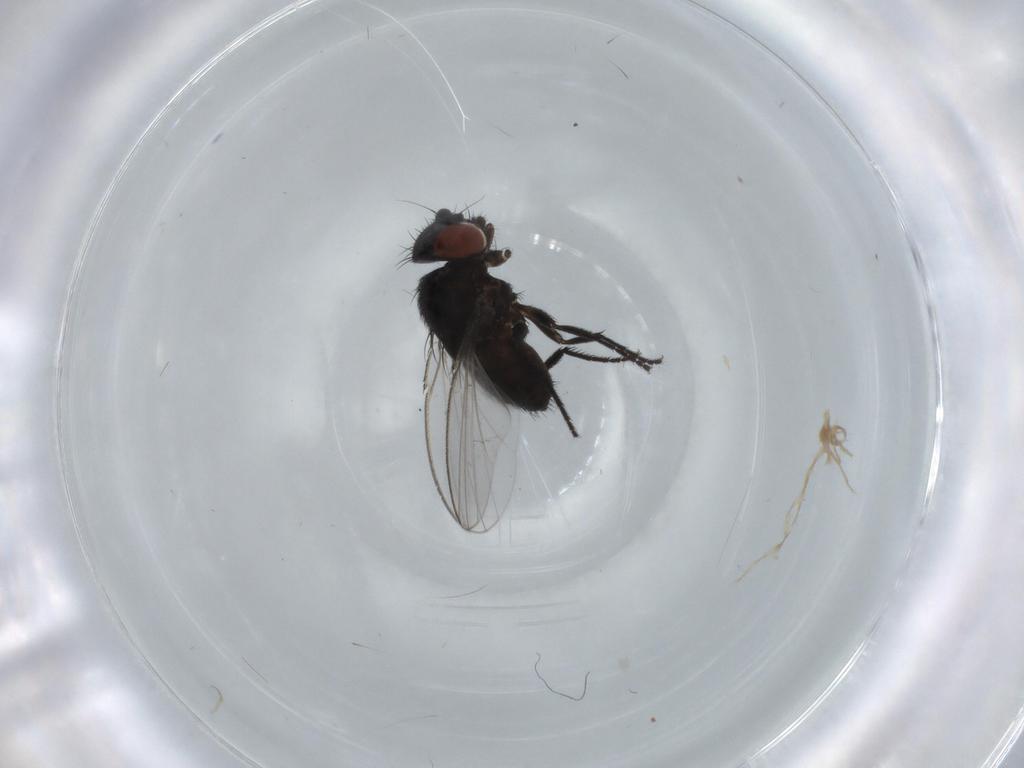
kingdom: Animalia
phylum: Arthropoda
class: Insecta
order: Diptera
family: Milichiidae
